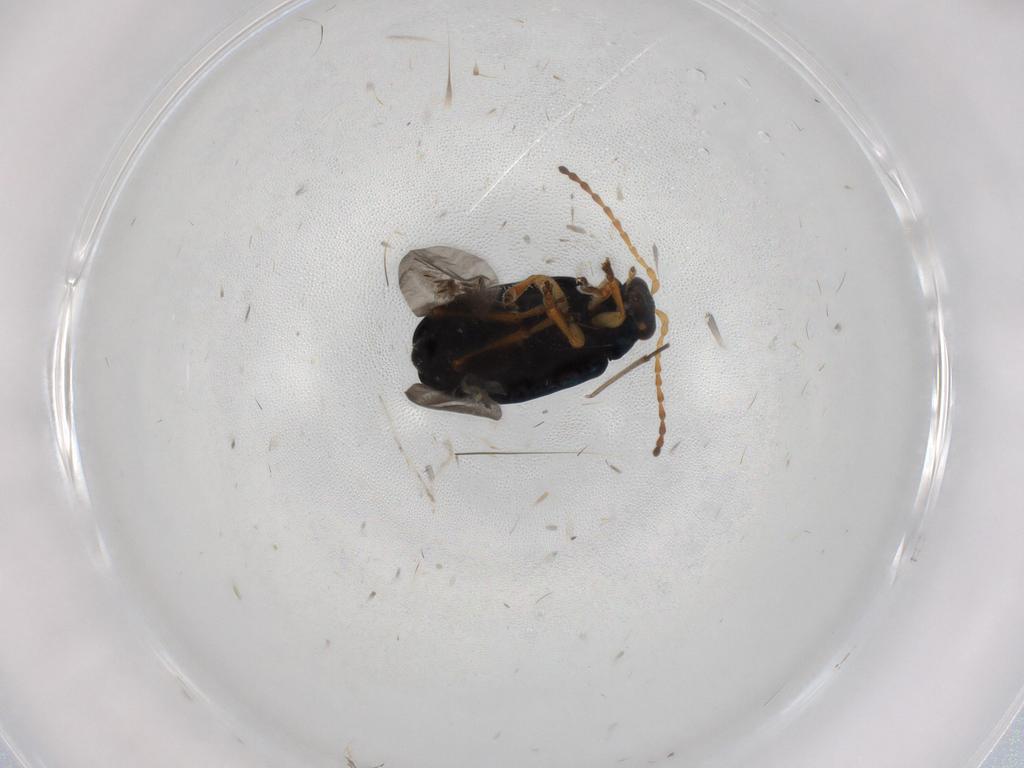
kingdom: Animalia
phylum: Arthropoda
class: Insecta
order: Coleoptera
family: Chrysomelidae
